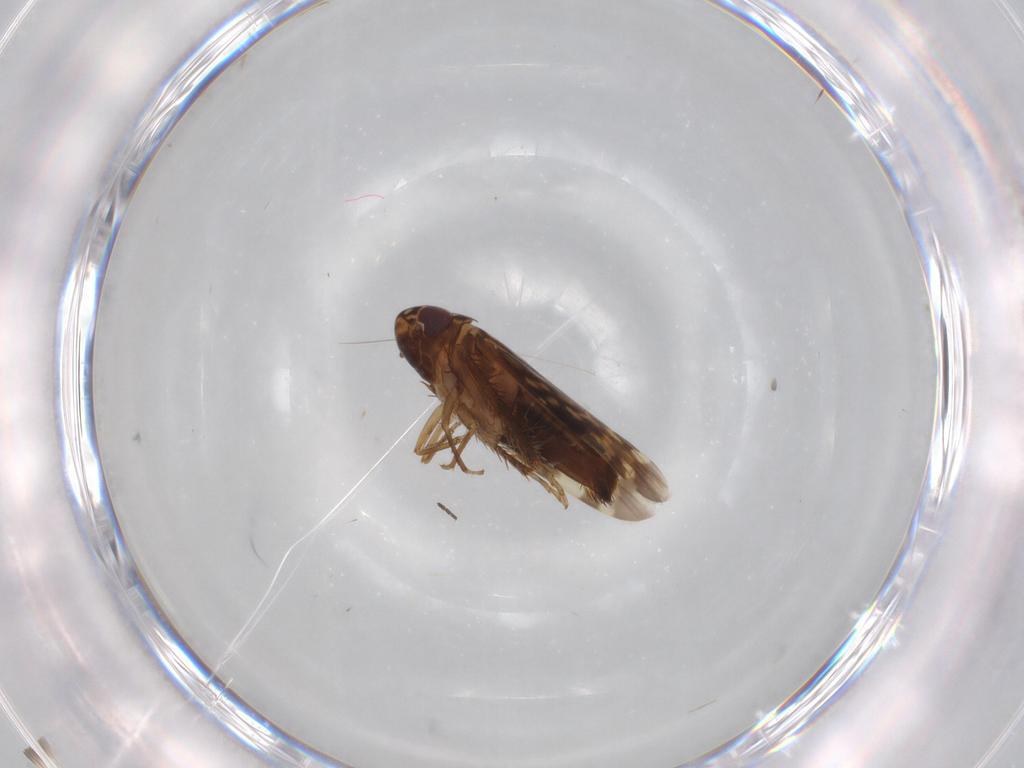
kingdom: Animalia
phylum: Arthropoda
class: Insecta
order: Hemiptera
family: Cicadellidae
